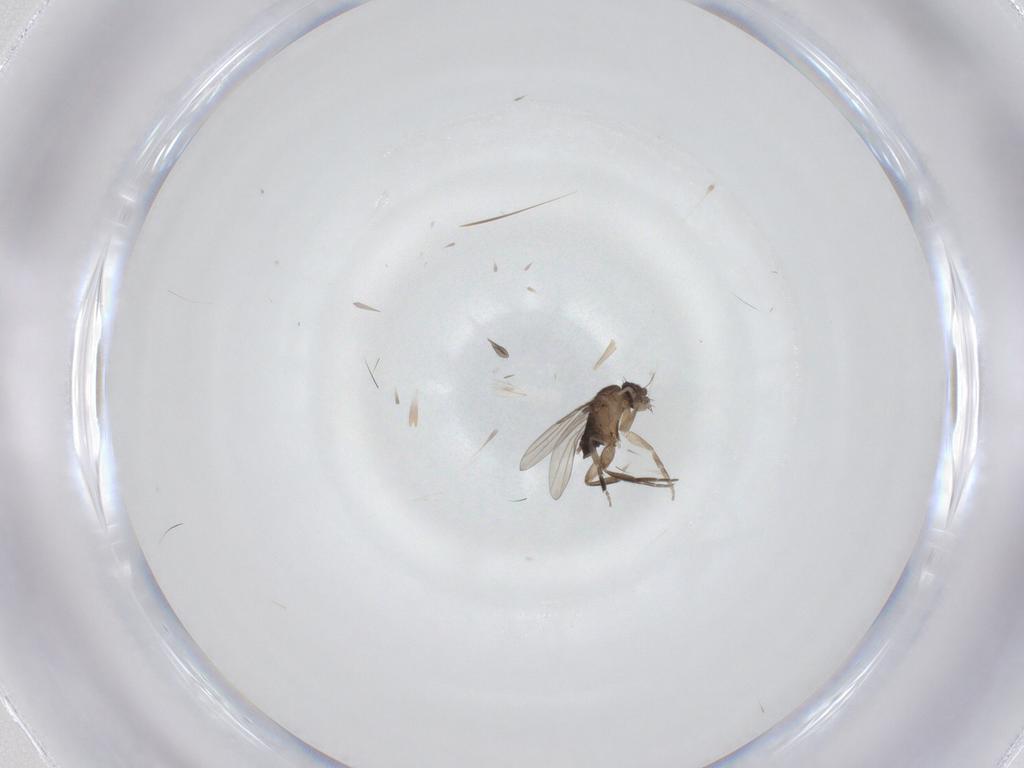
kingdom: Animalia
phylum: Arthropoda
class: Insecta
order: Diptera
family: Chironomidae
